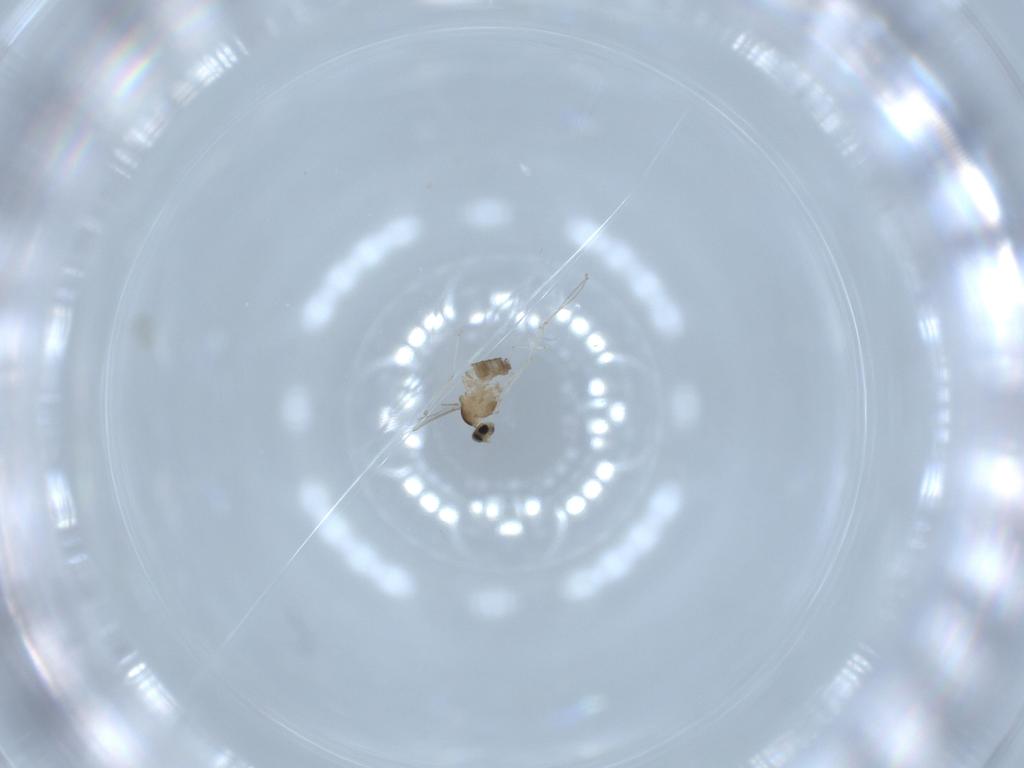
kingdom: Animalia
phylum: Arthropoda
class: Insecta
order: Diptera
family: Cecidomyiidae
